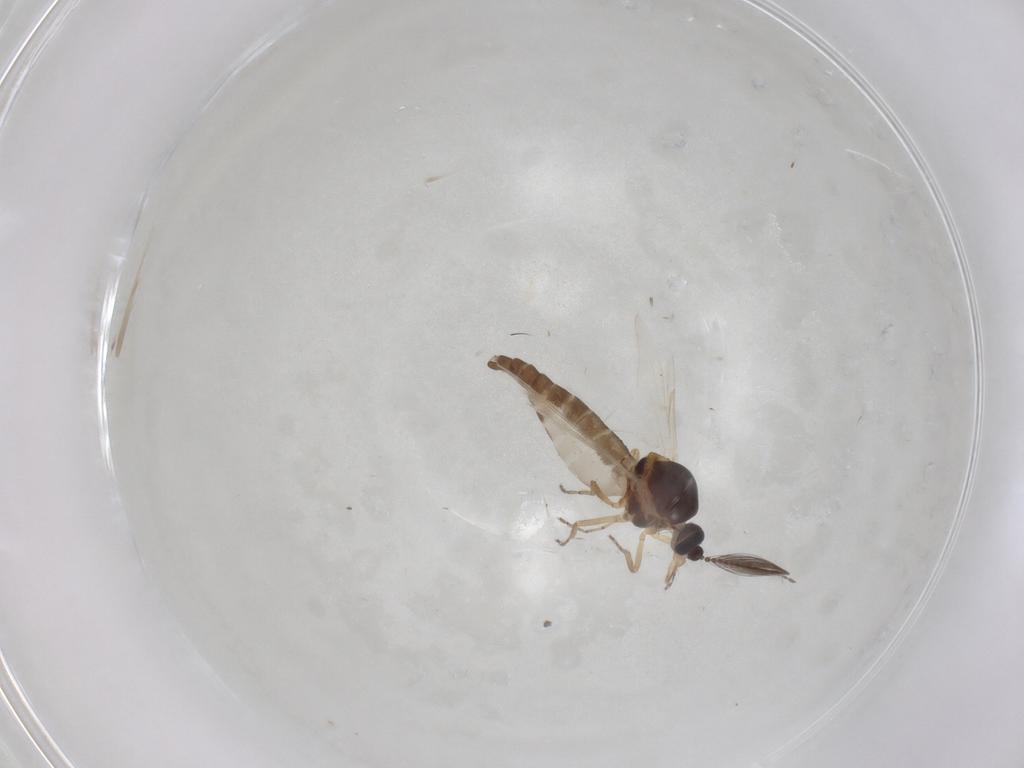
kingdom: Animalia
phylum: Arthropoda
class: Insecta
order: Diptera
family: Ceratopogonidae
